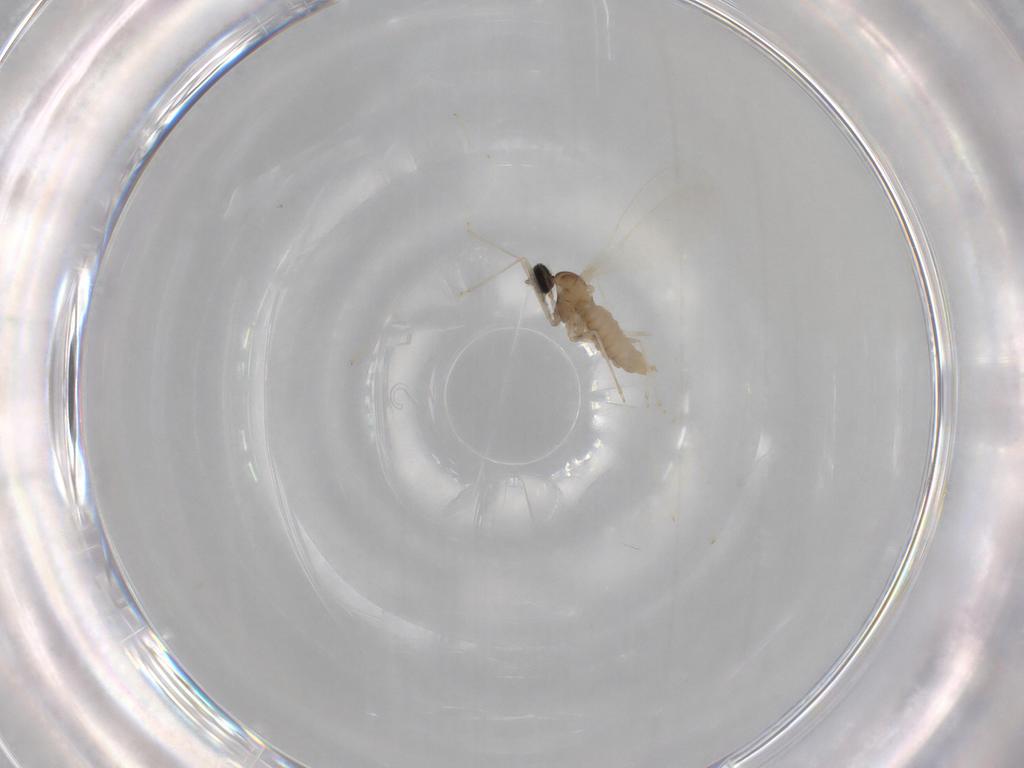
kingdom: Animalia
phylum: Arthropoda
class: Insecta
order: Diptera
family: Cecidomyiidae
